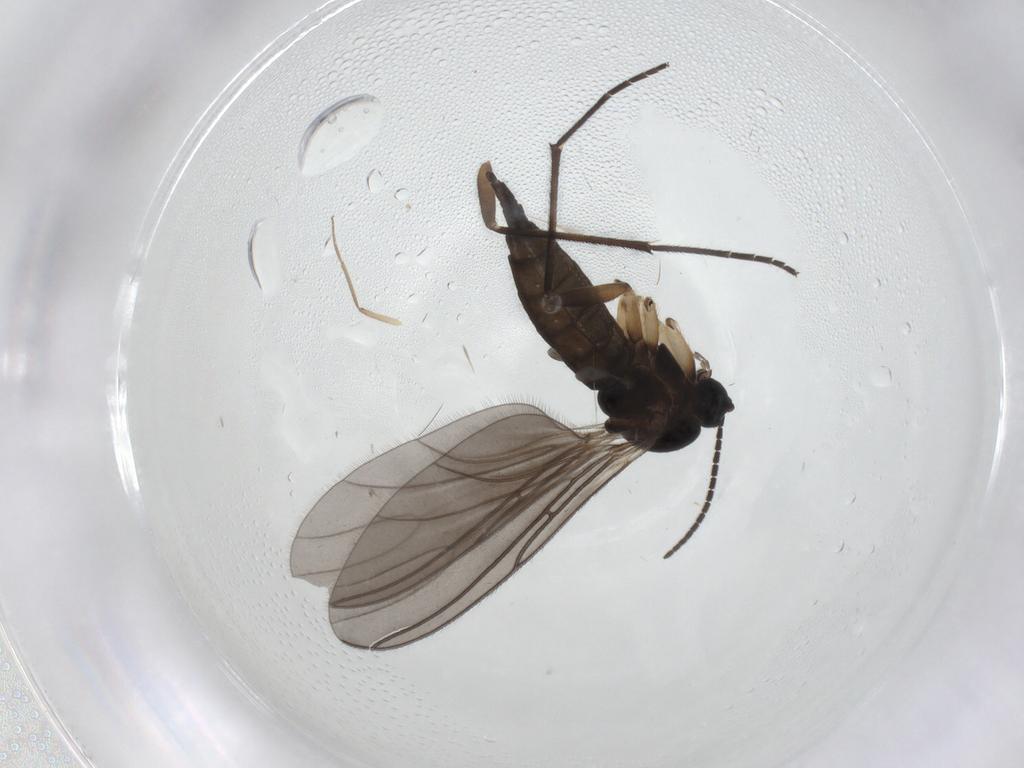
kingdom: Animalia
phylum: Arthropoda
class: Insecta
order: Diptera
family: Sciaridae
